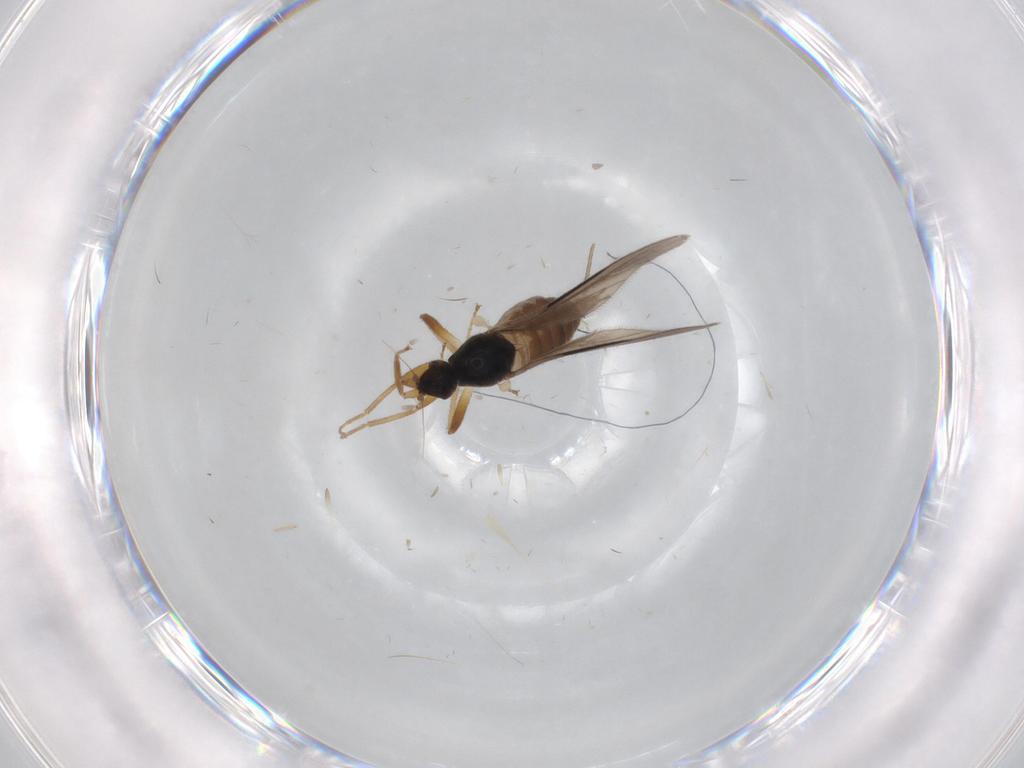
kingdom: Animalia
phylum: Arthropoda
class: Insecta
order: Diptera
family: Hybotidae
